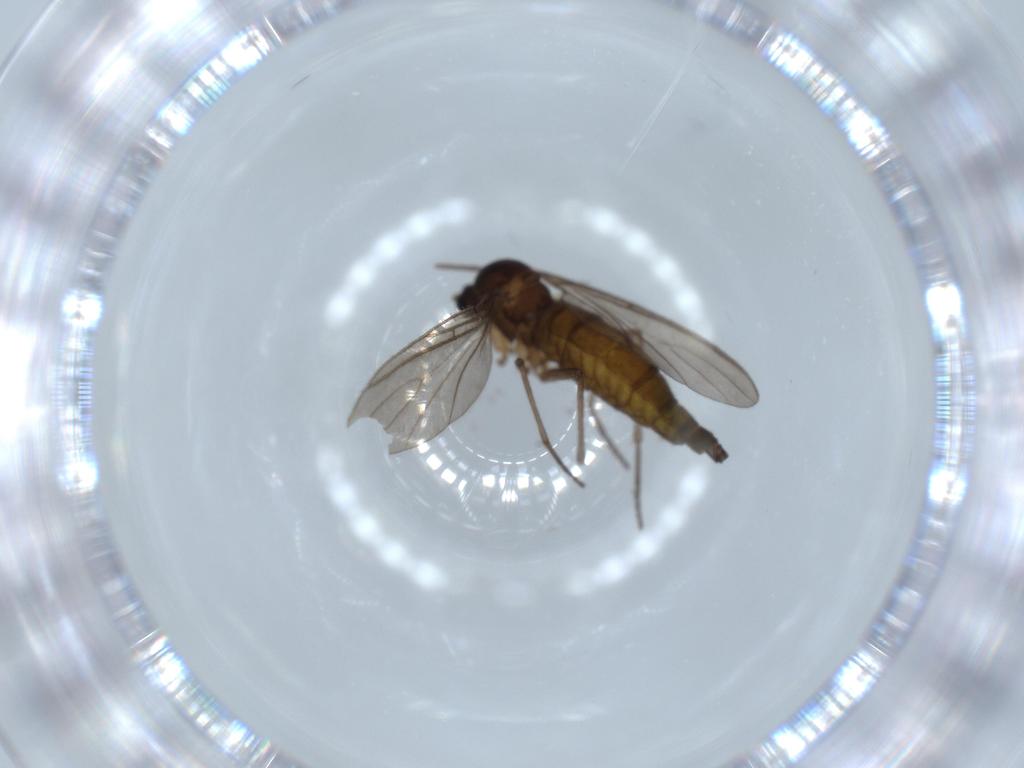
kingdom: Animalia
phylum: Arthropoda
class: Insecta
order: Diptera
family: Sciaridae
